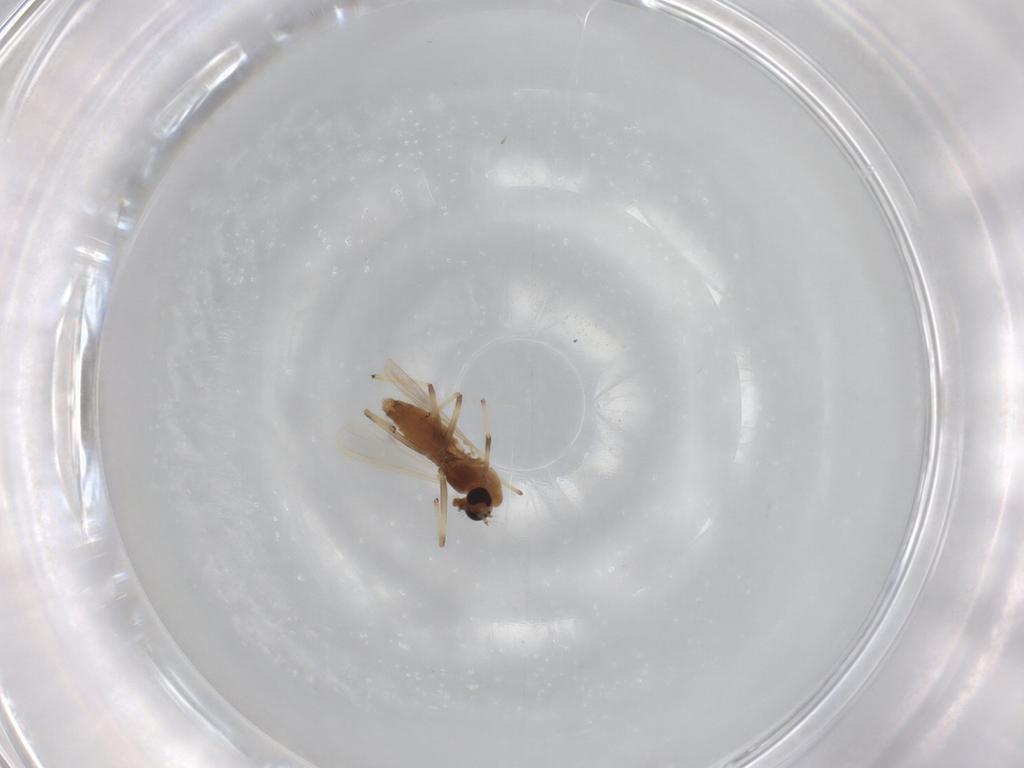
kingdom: Animalia
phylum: Arthropoda
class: Insecta
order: Diptera
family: Chironomidae
